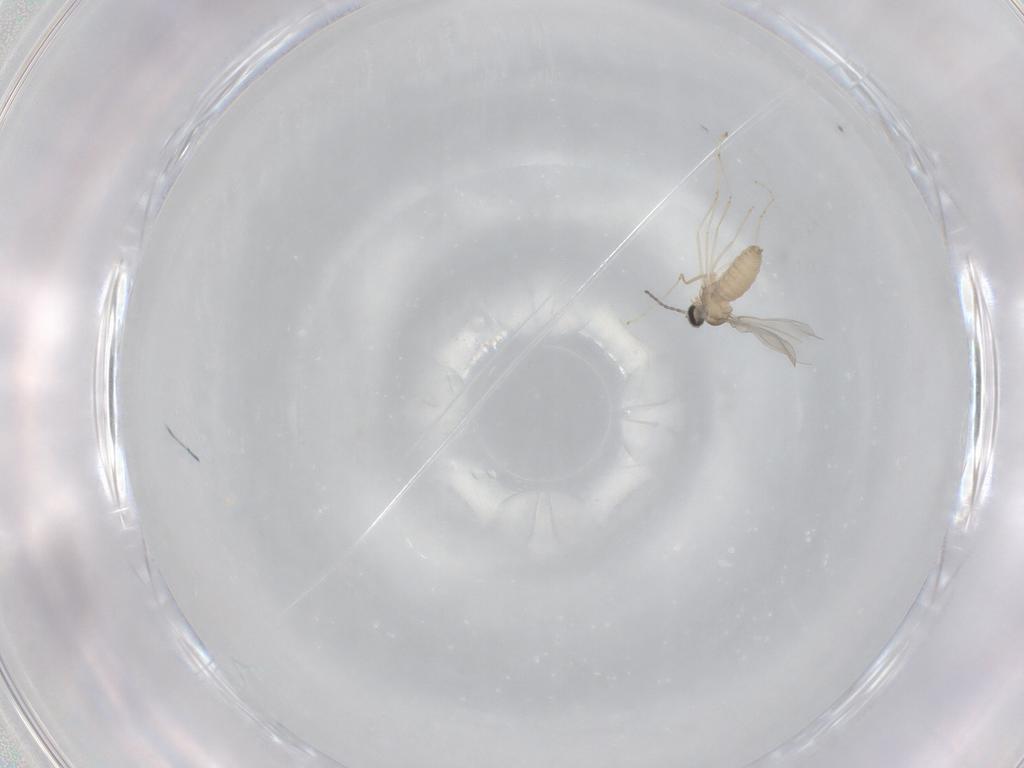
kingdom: Animalia
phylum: Arthropoda
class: Insecta
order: Diptera
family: Cecidomyiidae
